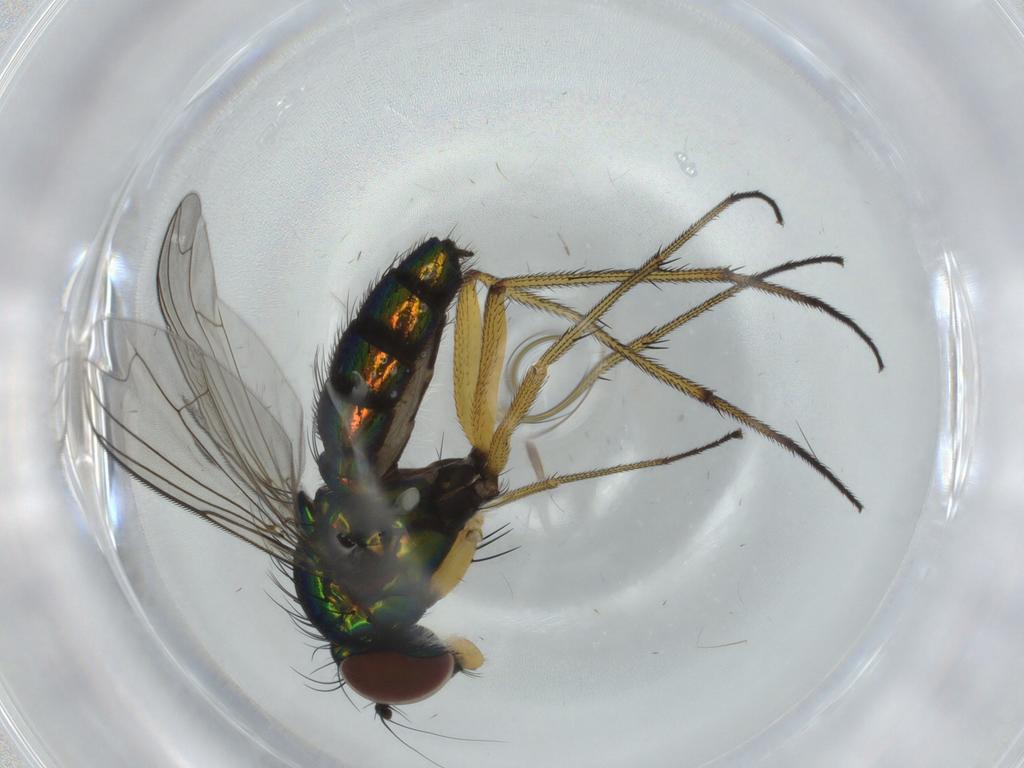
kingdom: Animalia
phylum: Arthropoda
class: Insecta
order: Diptera
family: Dolichopodidae
